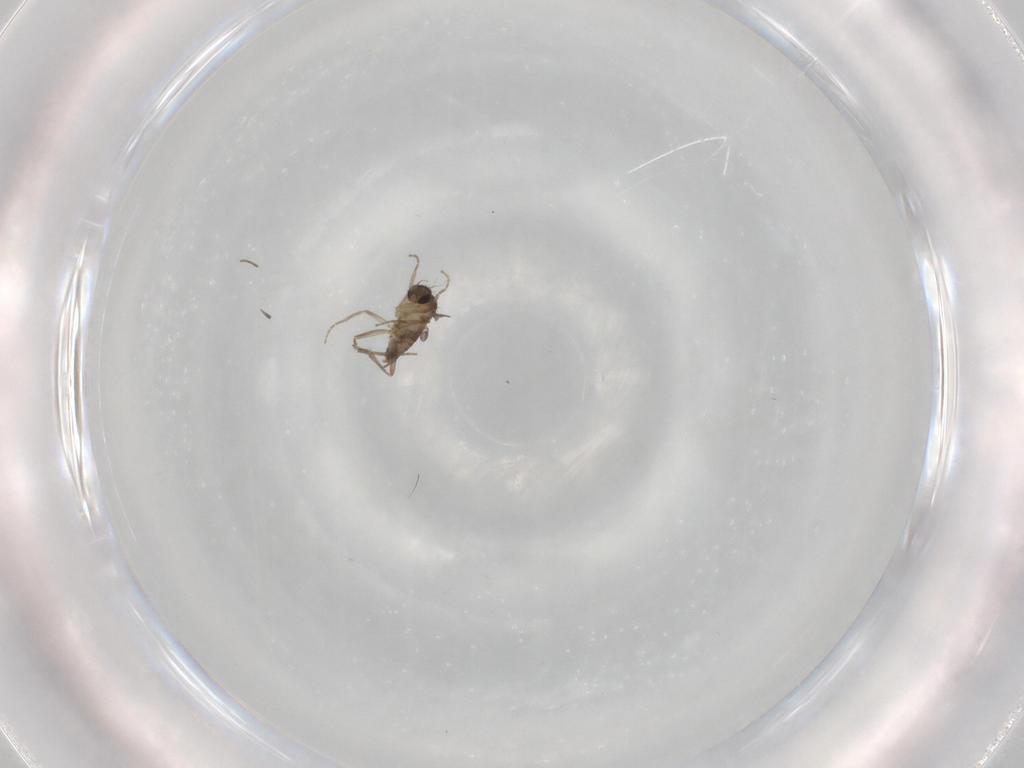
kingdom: Animalia
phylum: Arthropoda
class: Insecta
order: Diptera
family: Phoridae
